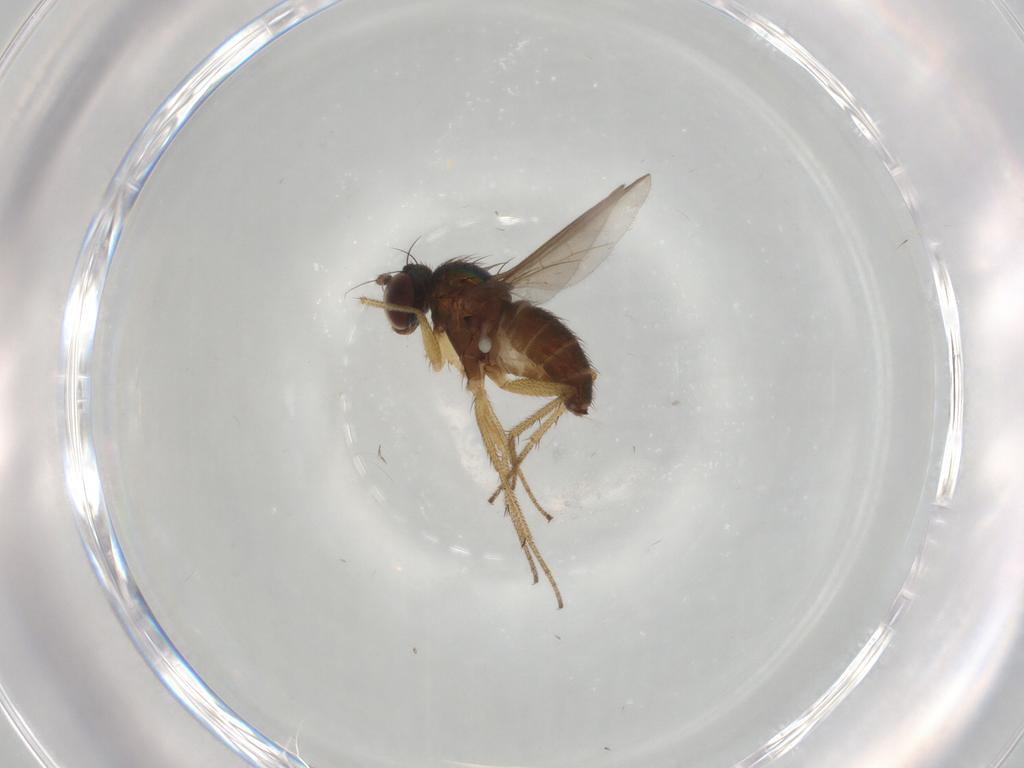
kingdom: Animalia
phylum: Arthropoda
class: Insecta
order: Diptera
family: Dolichopodidae
